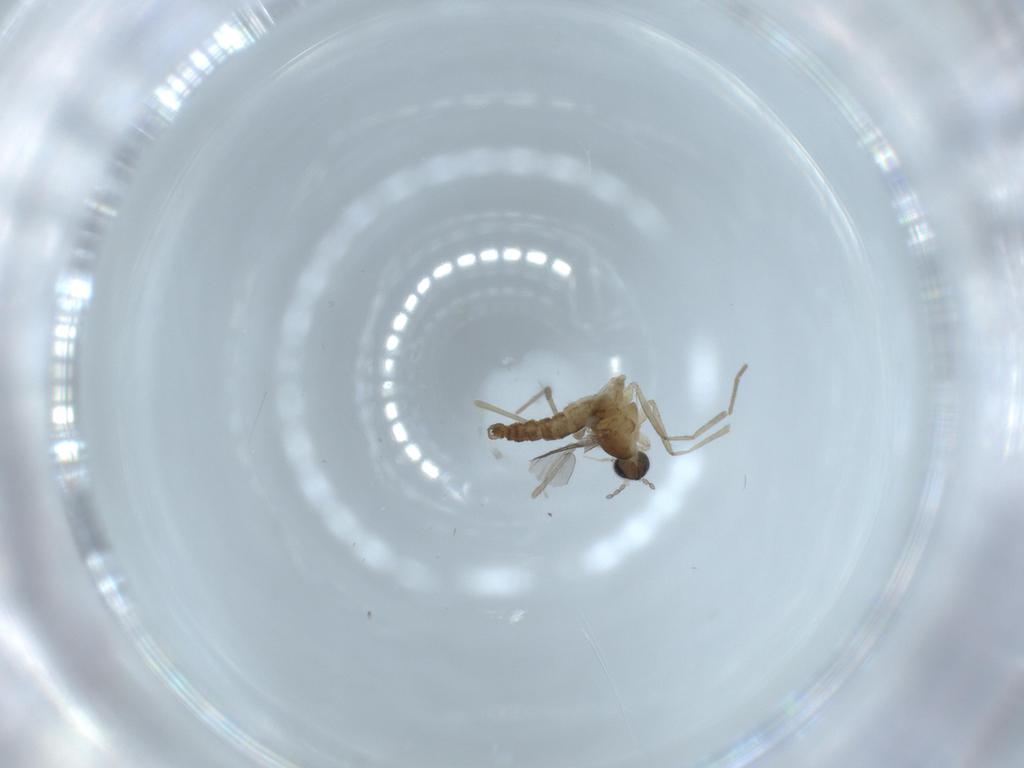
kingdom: Animalia
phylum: Arthropoda
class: Insecta
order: Diptera
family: Cecidomyiidae
